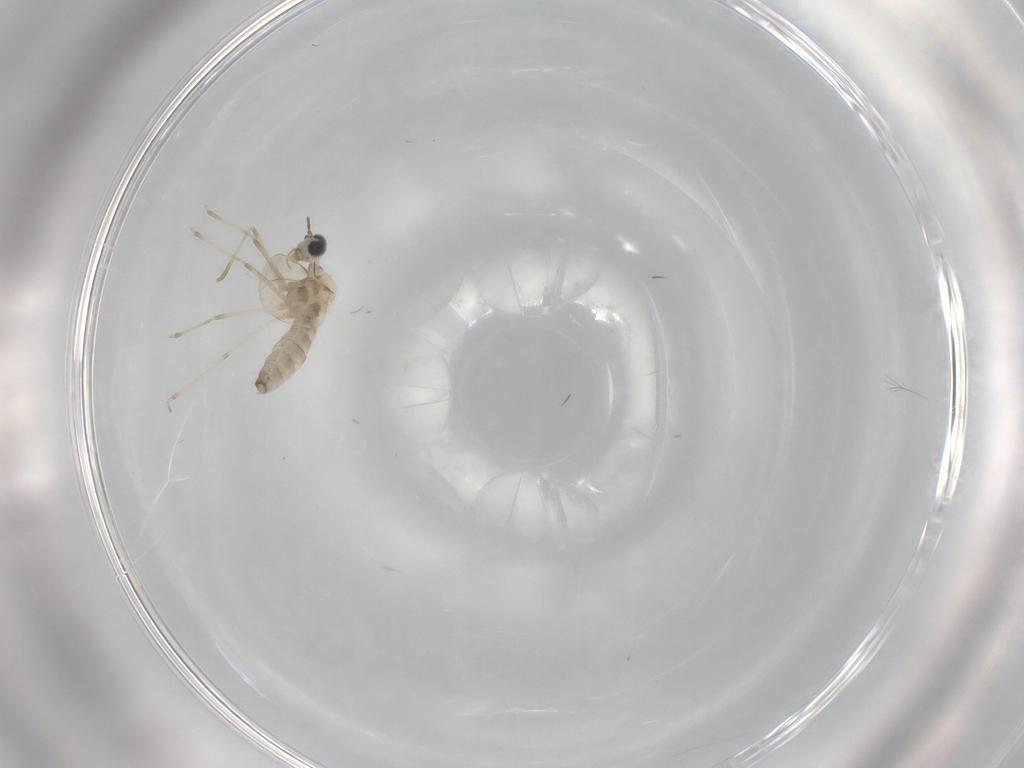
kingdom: Animalia
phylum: Arthropoda
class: Insecta
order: Diptera
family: Cecidomyiidae
